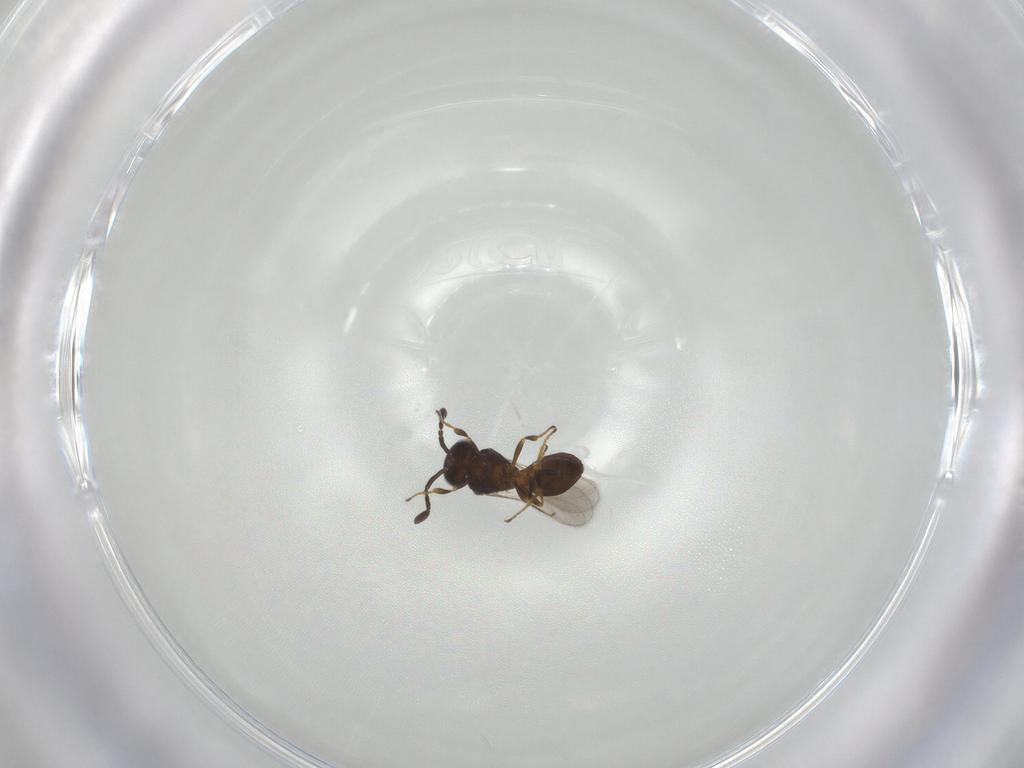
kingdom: Animalia
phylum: Arthropoda
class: Insecta
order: Hymenoptera
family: Scelionidae
